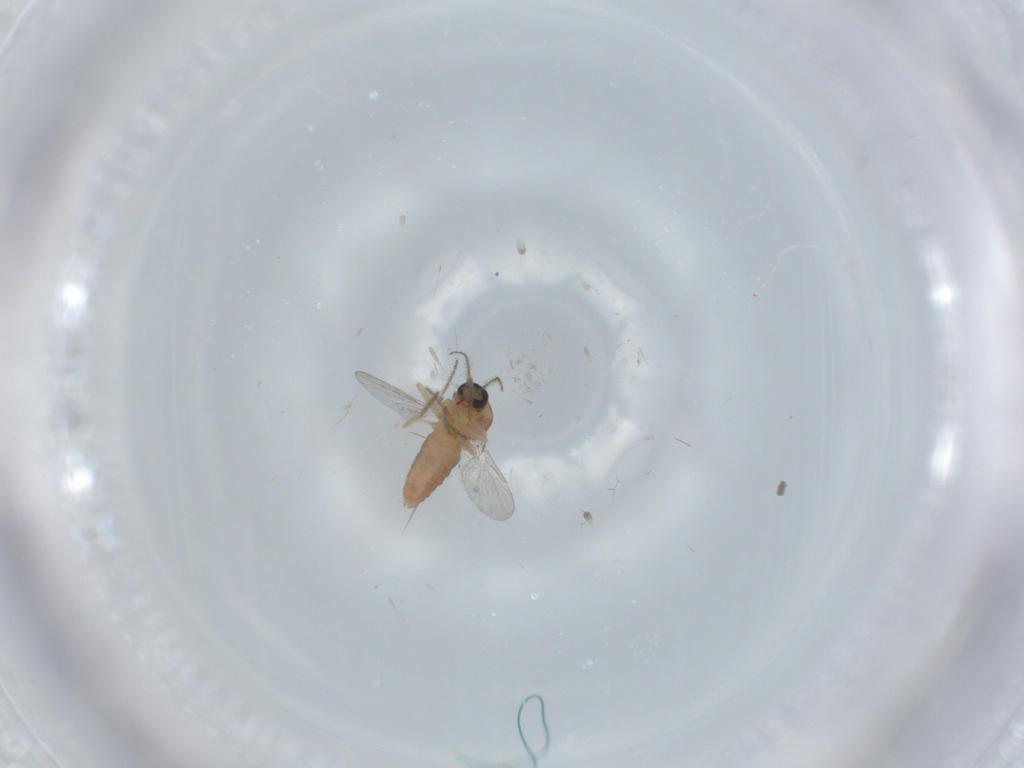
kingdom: Animalia
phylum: Arthropoda
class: Insecta
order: Diptera
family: Ceratopogonidae
